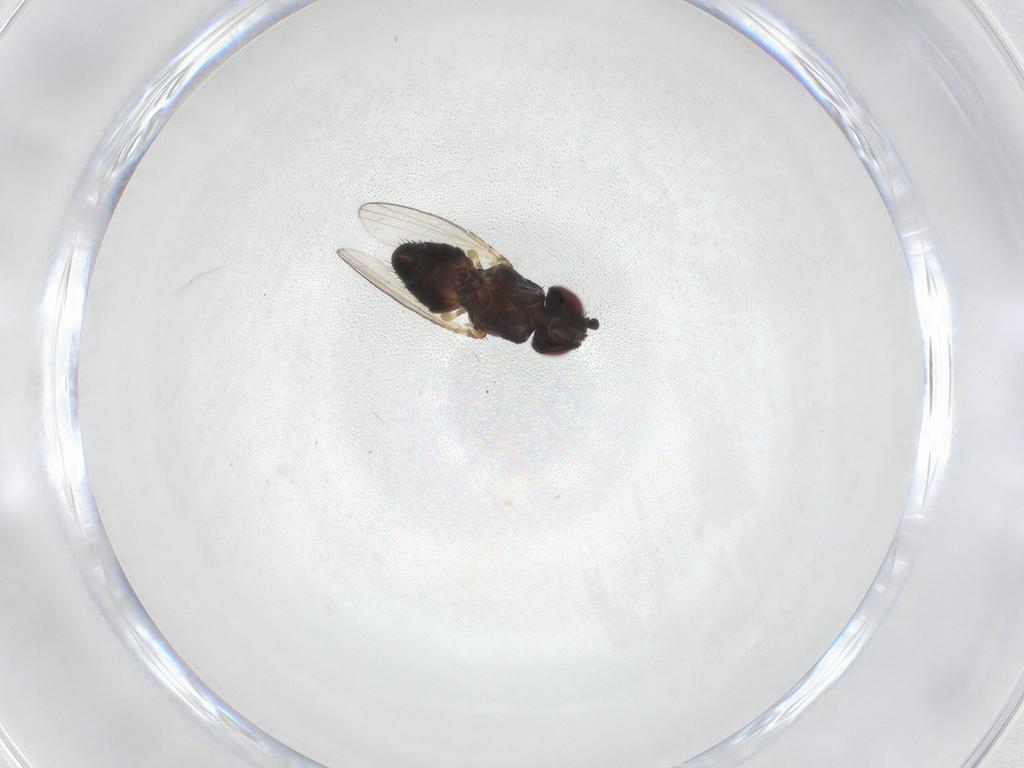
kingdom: Animalia
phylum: Arthropoda
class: Insecta
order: Diptera
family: Milichiidae
